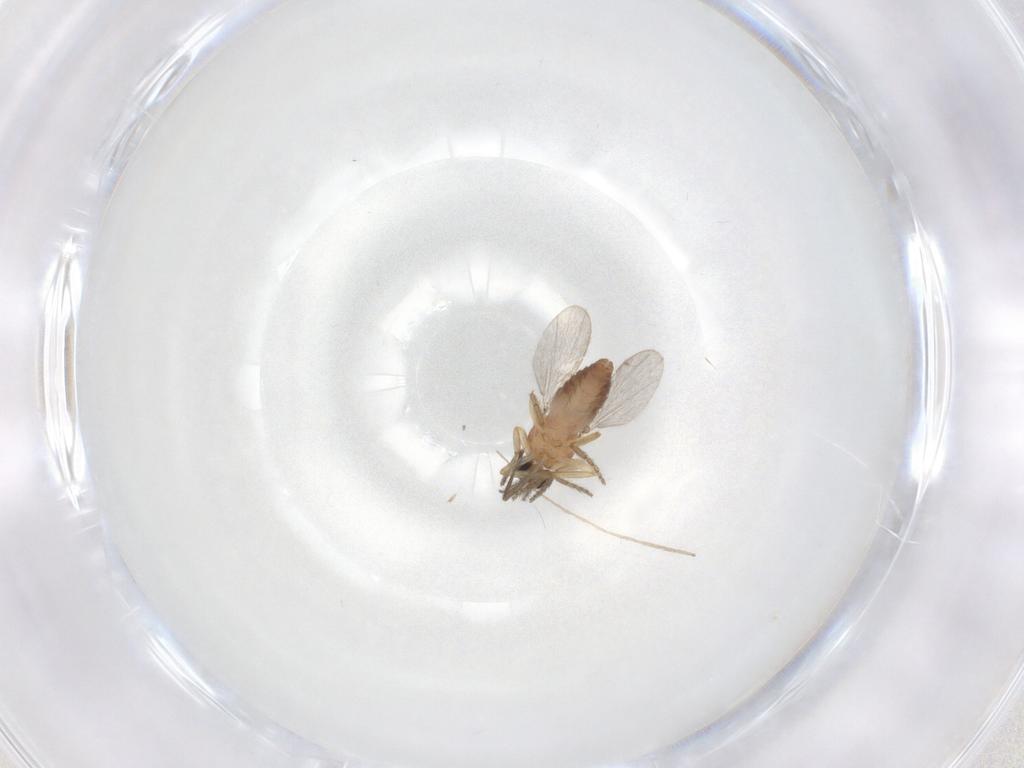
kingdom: Animalia
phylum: Arthropoda
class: Insecta
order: Diptera
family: Ceratopogonidae
